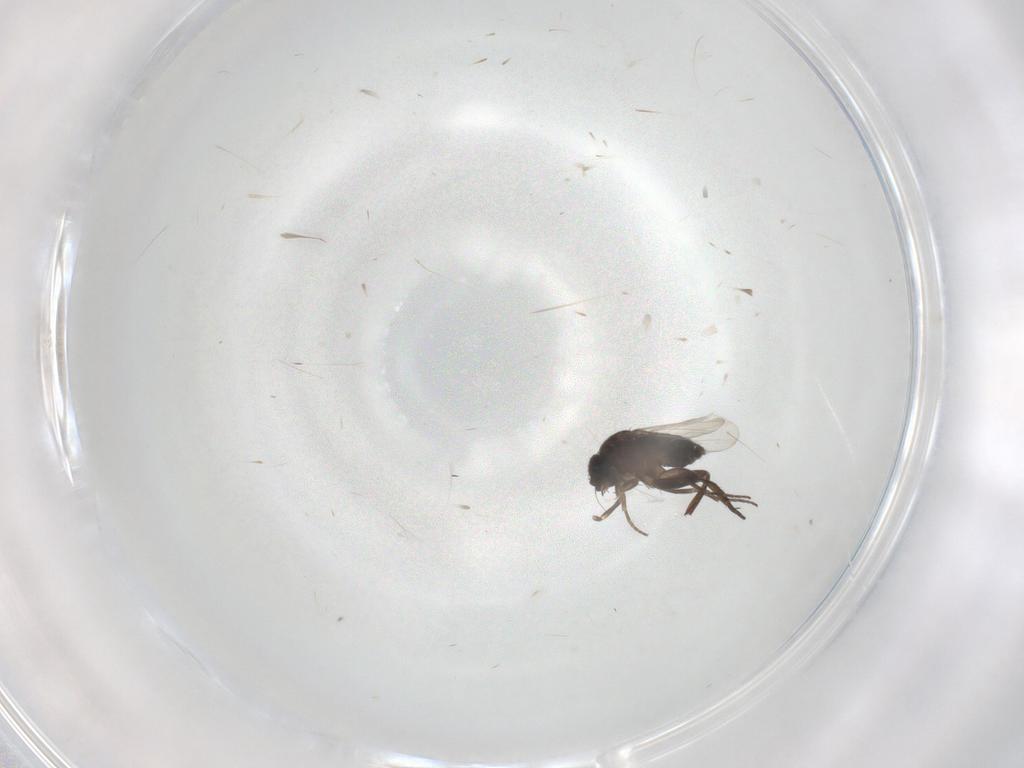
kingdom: Animalia
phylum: Arthropoda
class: Insecta
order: Diptera
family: Phoridae
